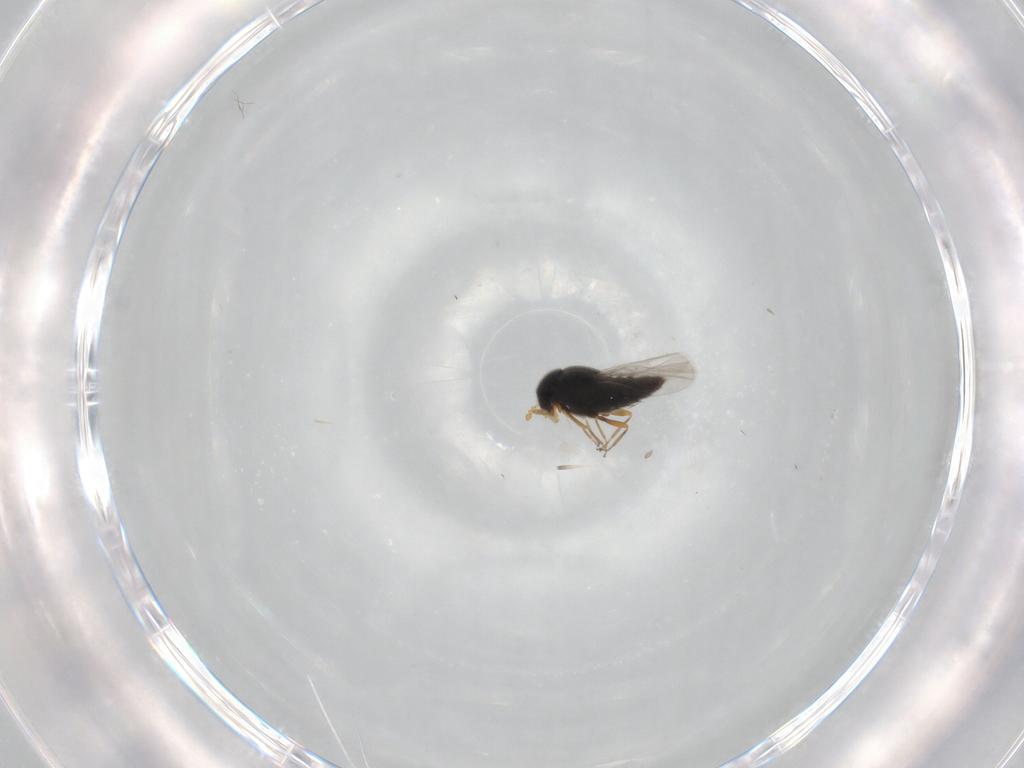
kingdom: Animalia
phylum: Arthropoda
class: Insecta
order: Coleoptera
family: Staphylinidae
